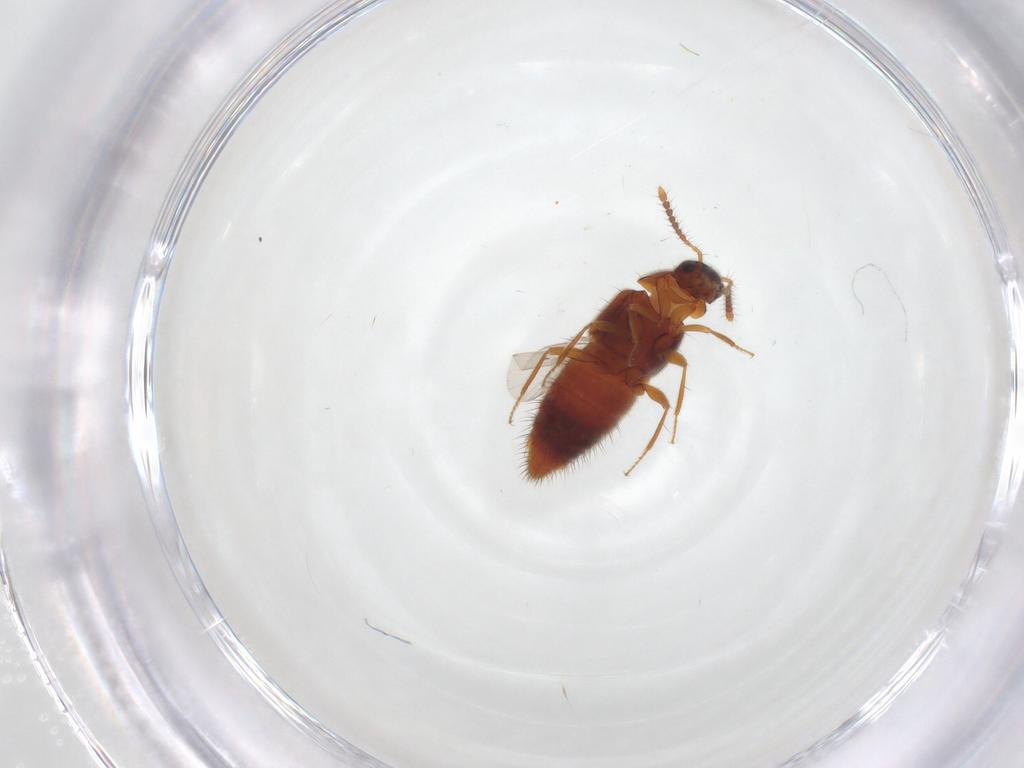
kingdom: Animalia
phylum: Arthropoda
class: Insecta
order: Coleoptera
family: Staphylinidae
